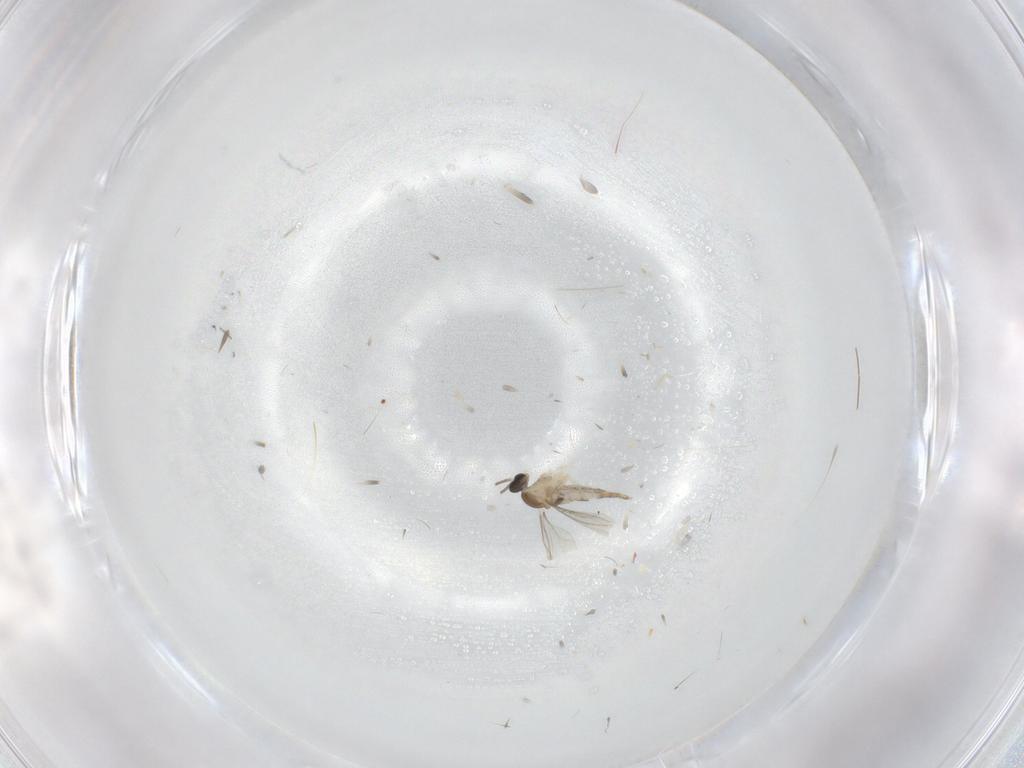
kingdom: Animalia
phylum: Arthropoda
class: Insecta
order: Diptera
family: Cecidomyiidae
